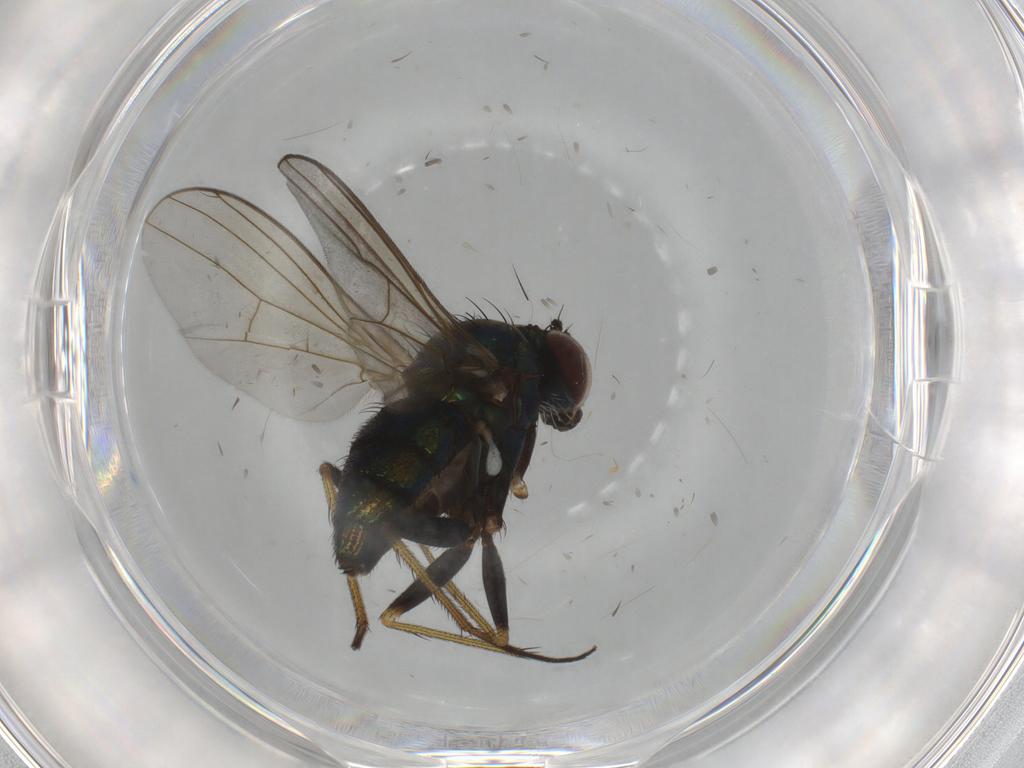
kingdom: Animalia
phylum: Arthropoda
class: Insecta
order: Diptera
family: Dolichopodidae
